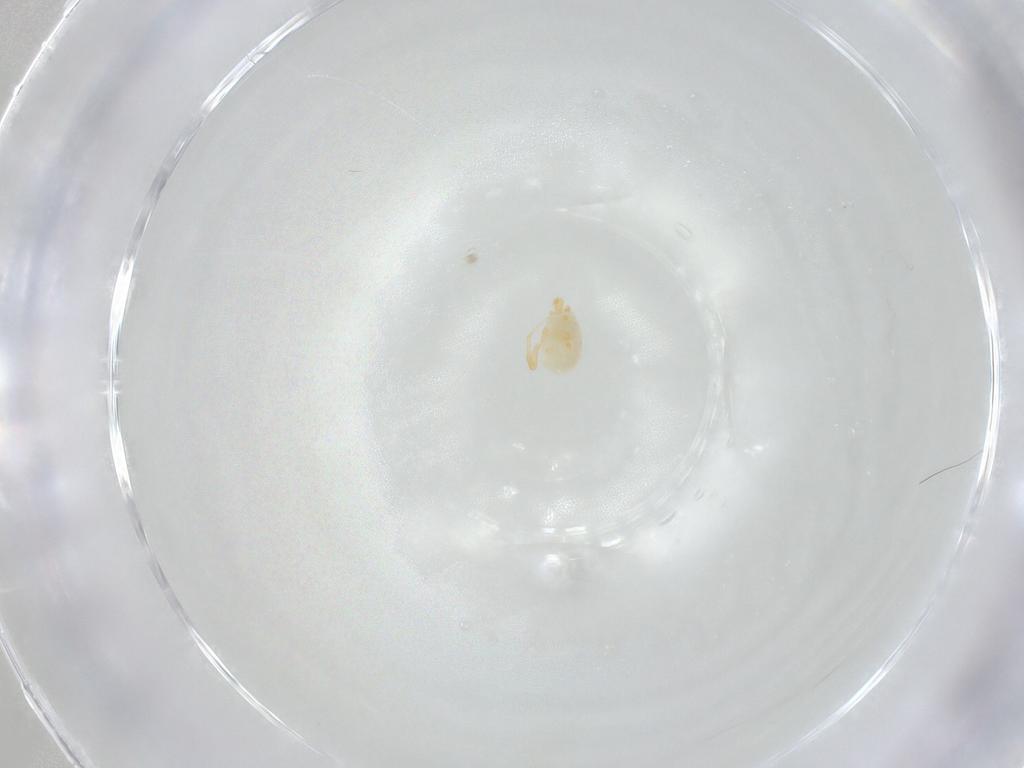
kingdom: Animalia
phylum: Arthropoda
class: Arachnida
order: Trombidiformes
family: Eupodidae
